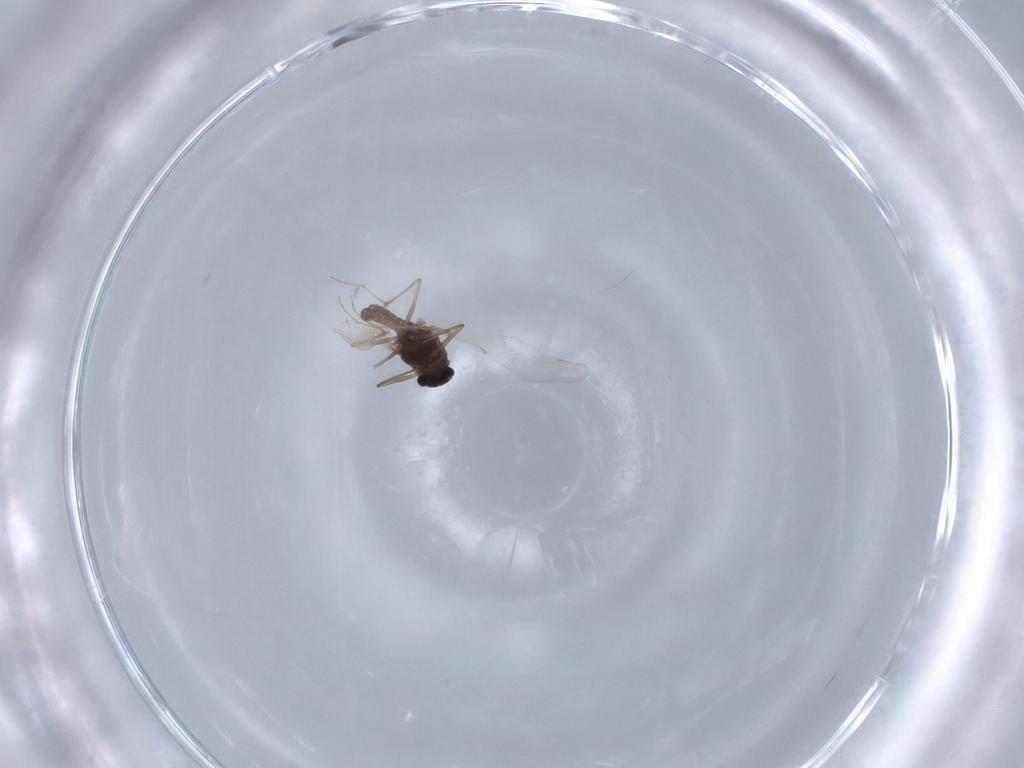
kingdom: Animalia
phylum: Arthropoda
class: Insecta
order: Diptera
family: Chironomidae
